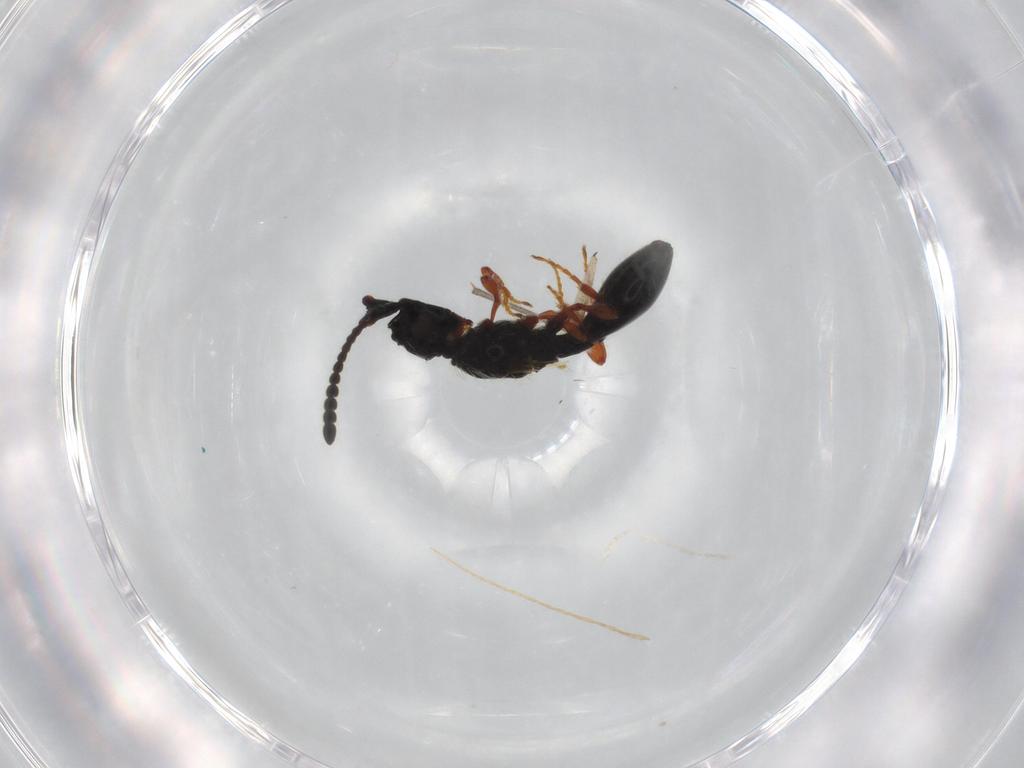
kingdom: Animalia
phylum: Arthropoda
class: Insecta
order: Hymenoptera
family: Diapriidae
